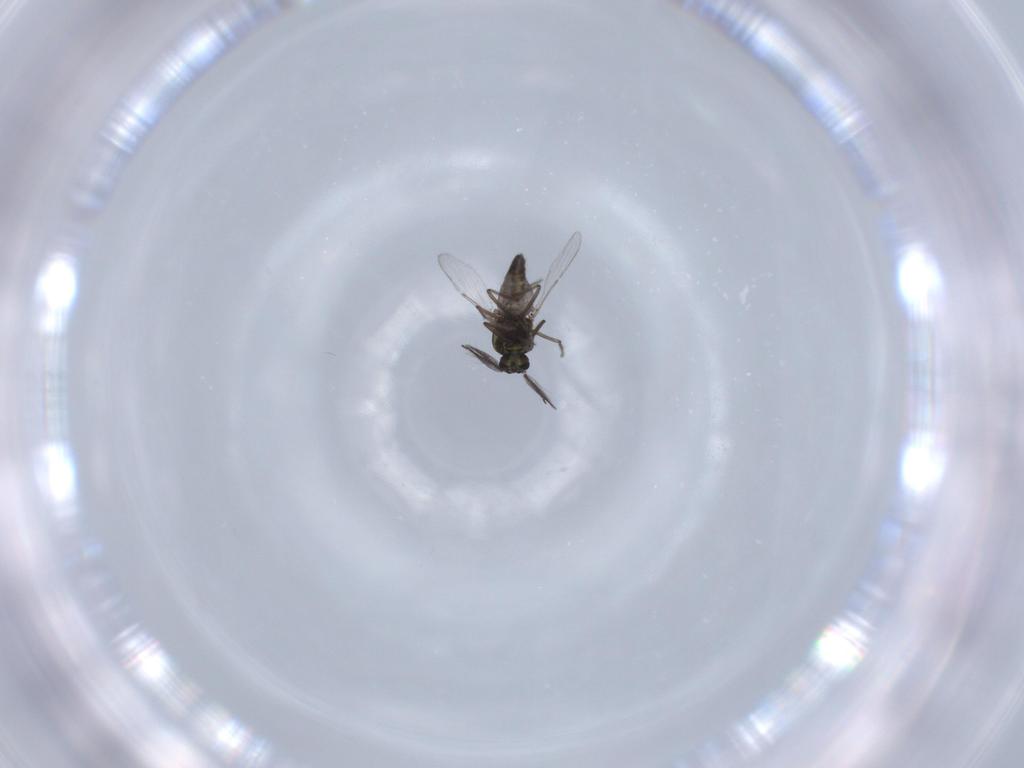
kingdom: Animalia
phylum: Arthropoda
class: Insecta
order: Diptera
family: Ceratopogonidae
